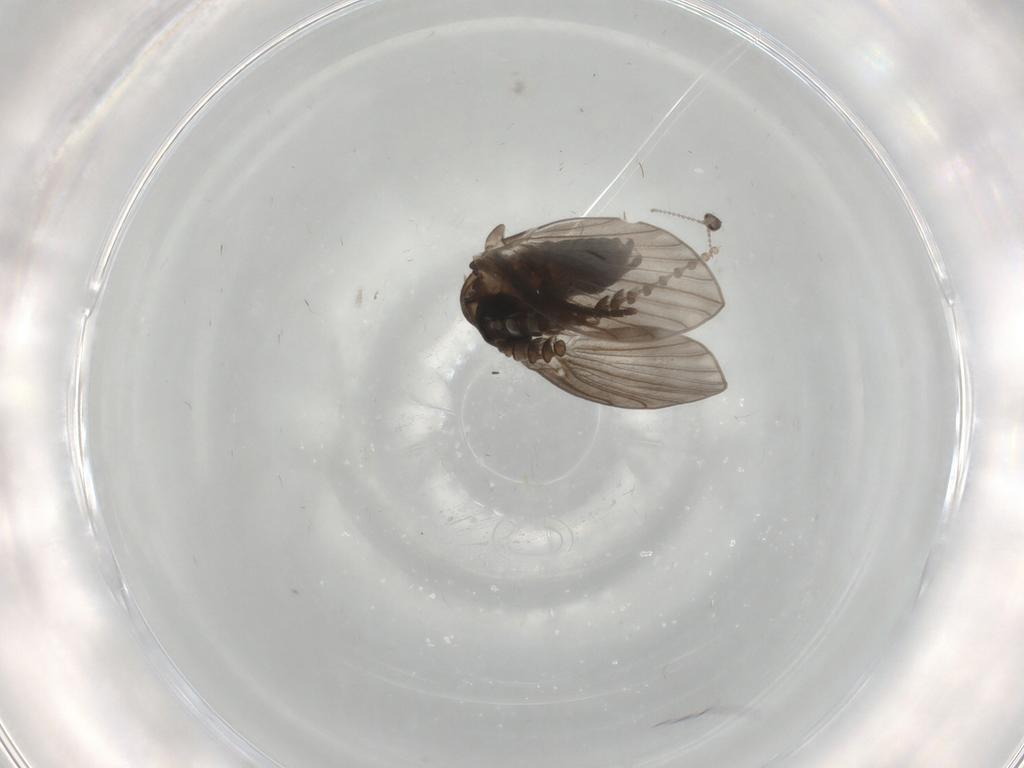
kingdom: Animalia
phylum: Arthropoda
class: Insecta
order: Diptera
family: Psychodidae
